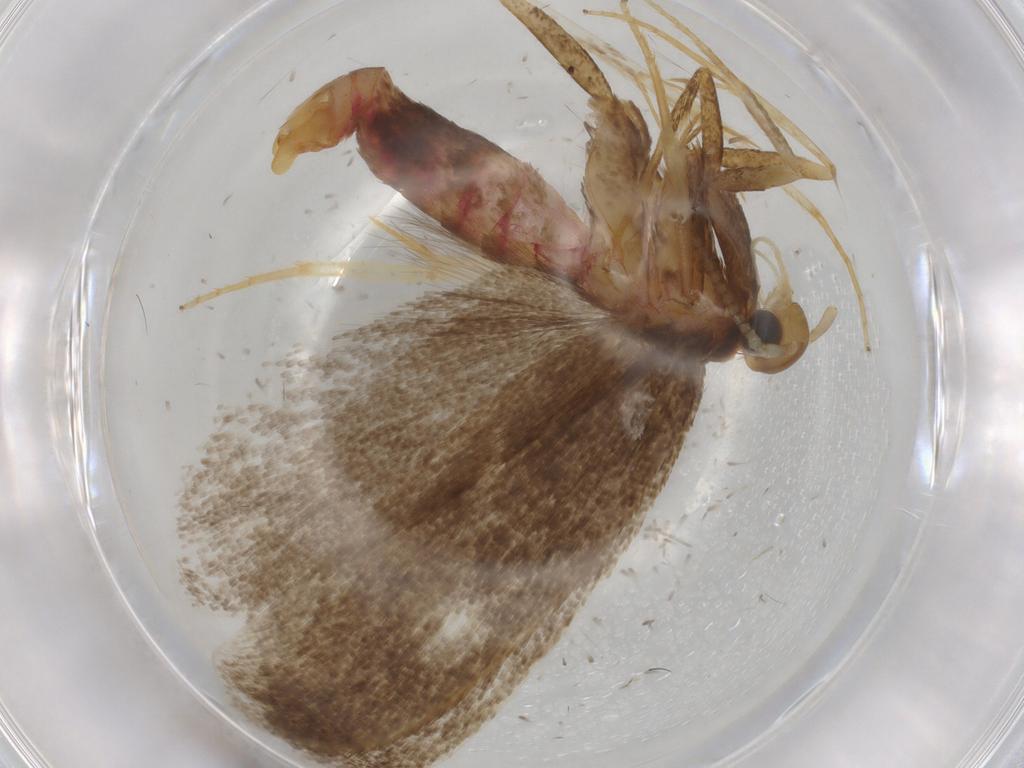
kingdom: Animalia
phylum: Arthropoda
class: Insecta
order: Lepidoptera
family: Lecithoceridae
